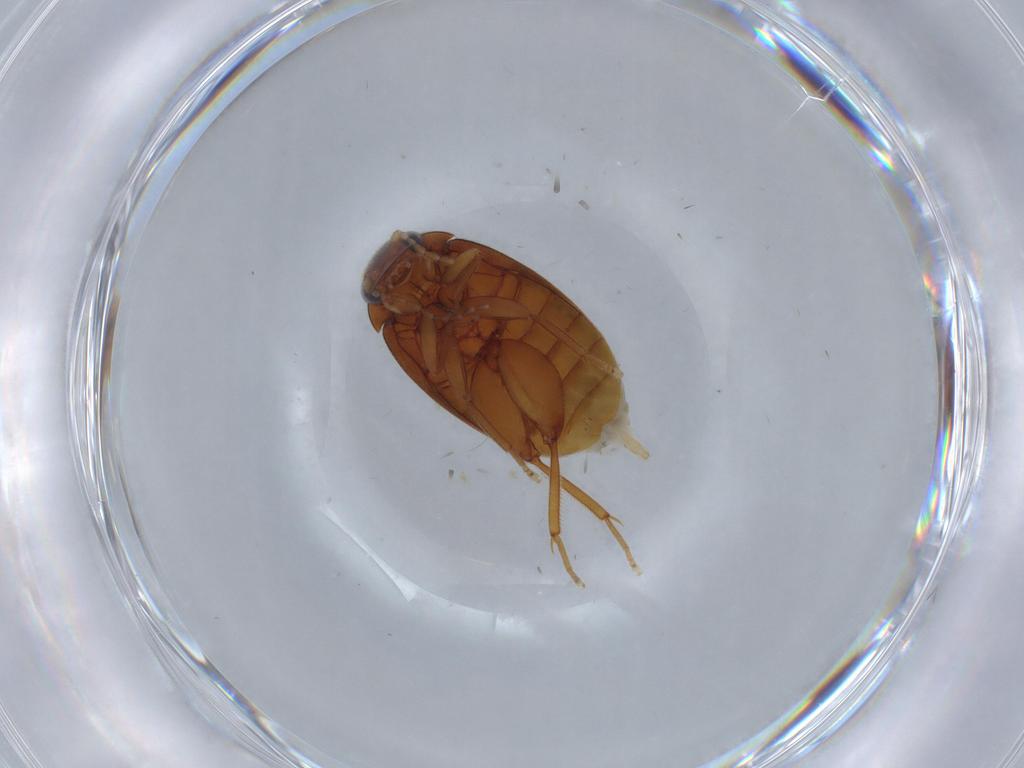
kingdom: Animalia
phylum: Arthropoda
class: Insecta
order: Coleoptera
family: Scirtidae
